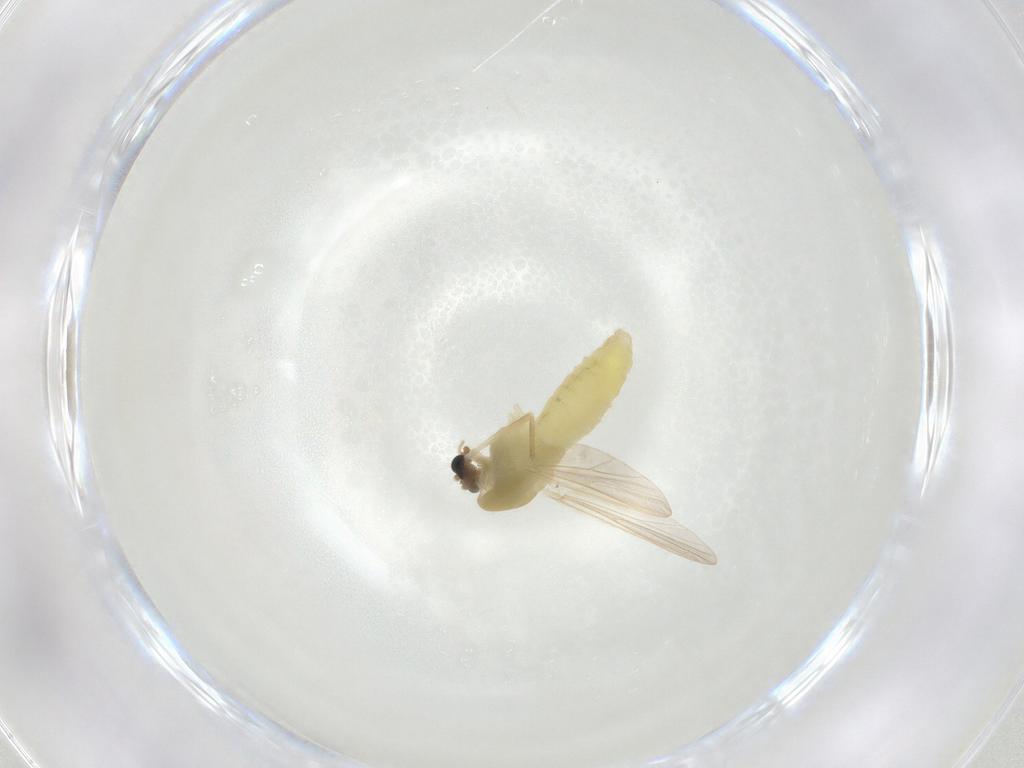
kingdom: Animalia
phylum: Arthropoda
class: Insecta
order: Diptera
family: Chironomidae
